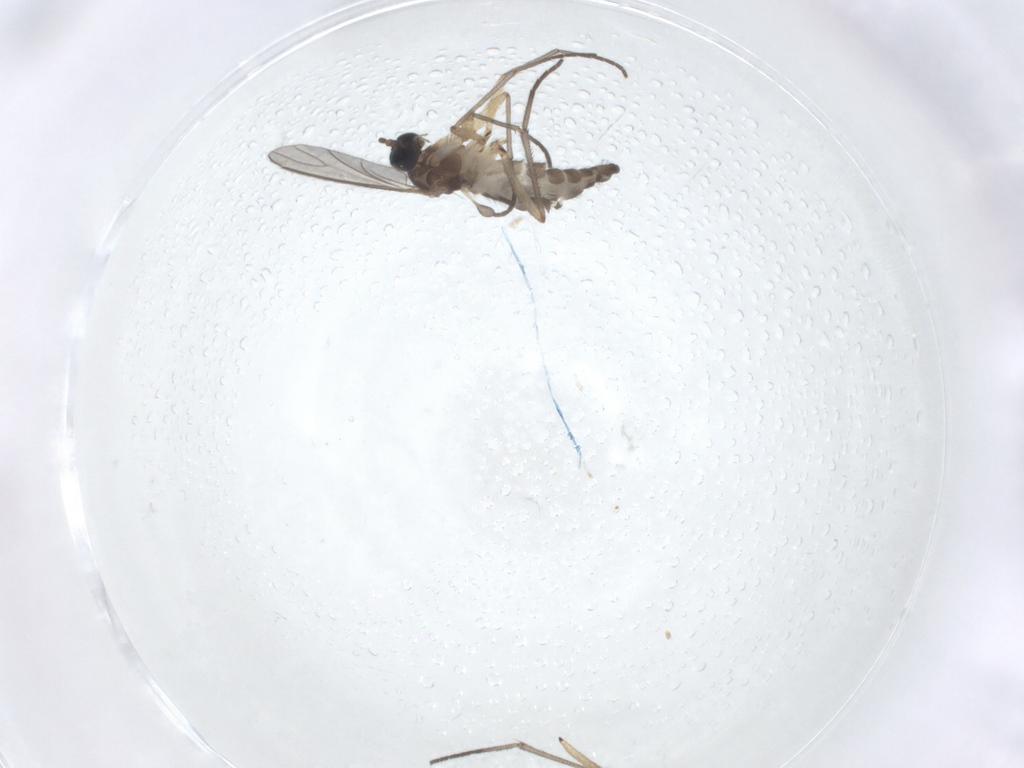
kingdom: Animalia
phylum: Arthropoda
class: Insecta
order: Diptera
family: Sciaridae
